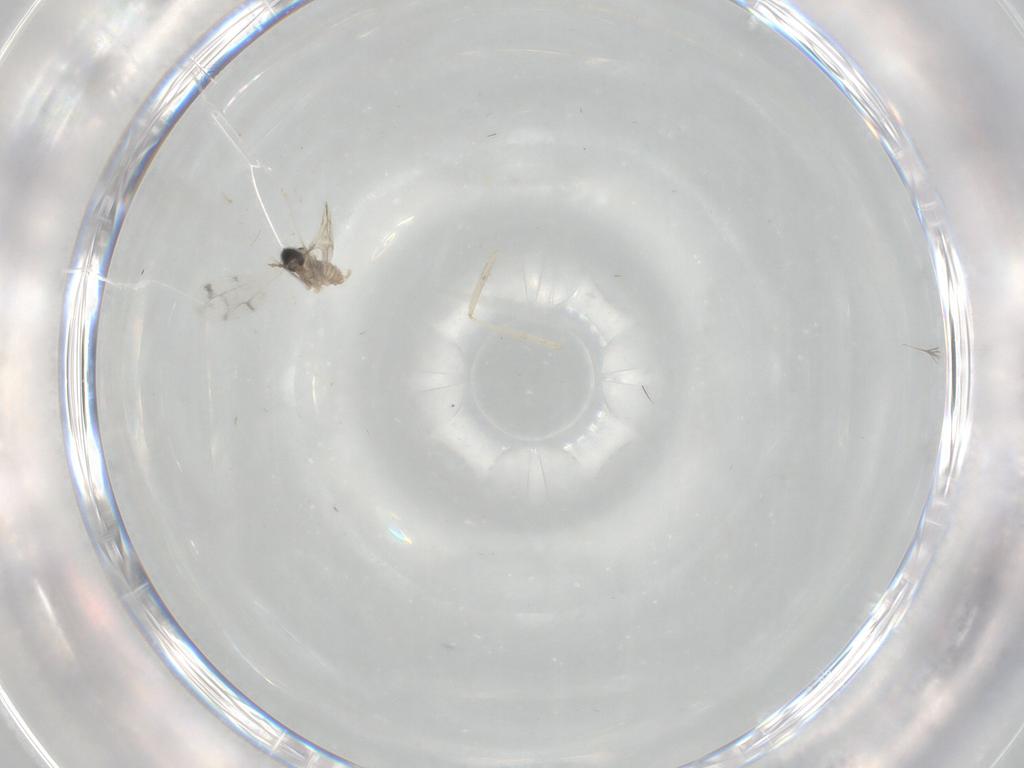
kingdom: Animalia
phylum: Arthropoda
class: Insecta
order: Diptera
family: Cecidomyiidae
